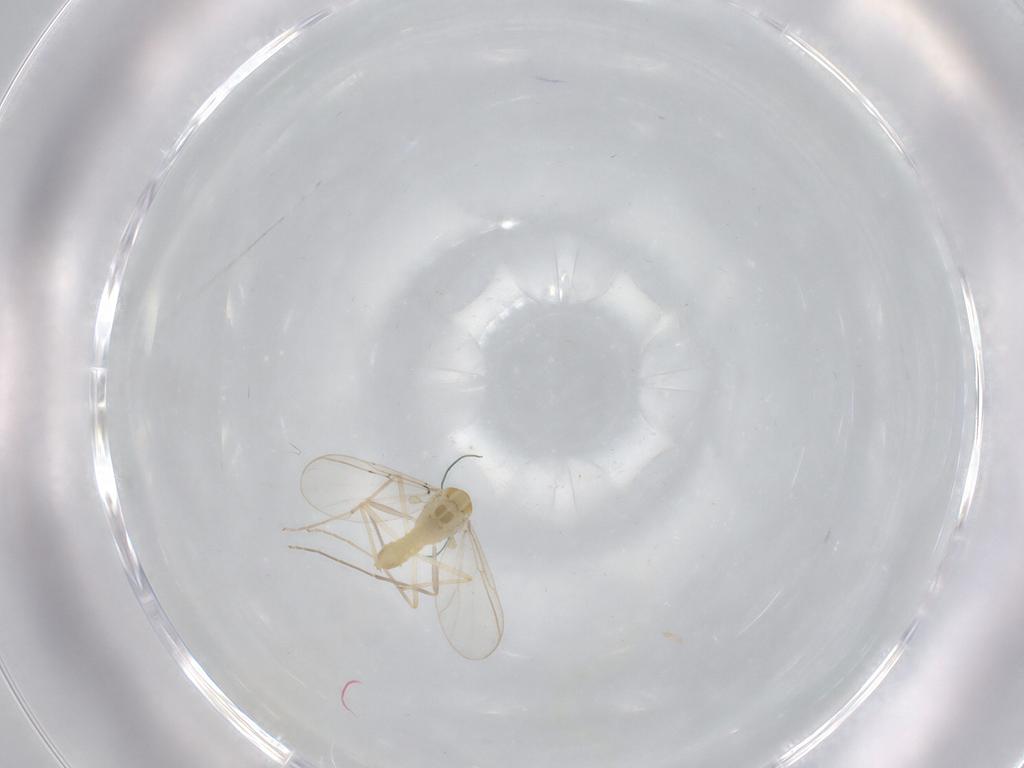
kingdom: Animalia
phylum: Arthropoda
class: Insecta
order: Diptera
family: Chironomidae
